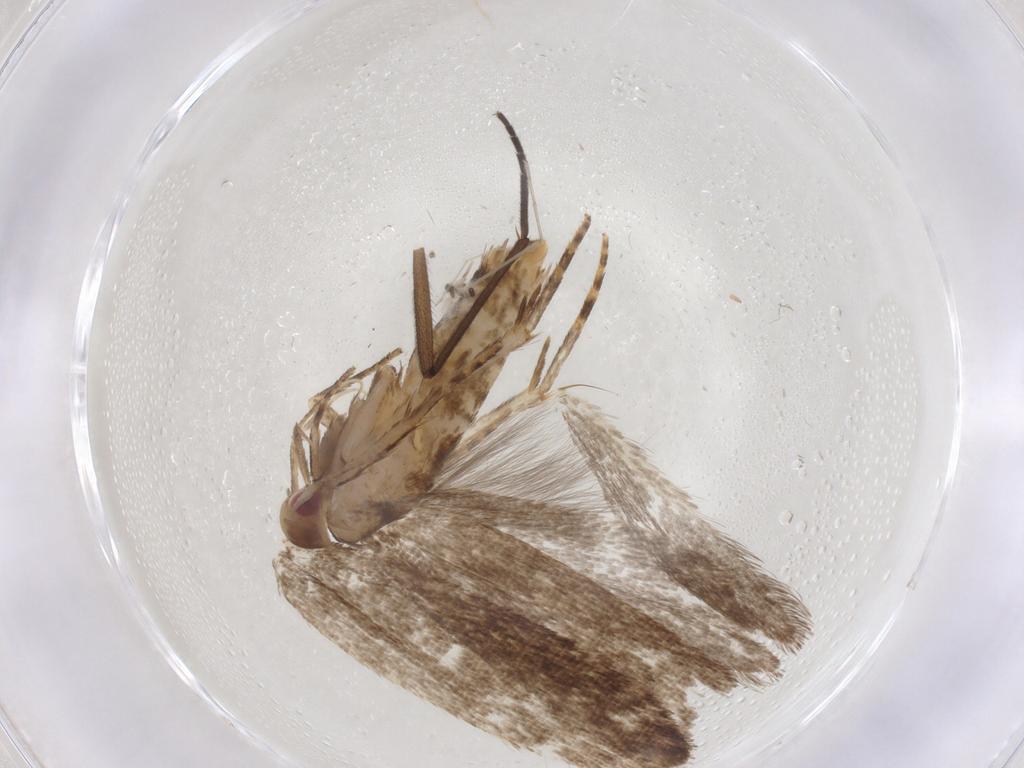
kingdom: Animalia
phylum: Arthropoda
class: Insecta
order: Lepidoptera
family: Gelechiidae
